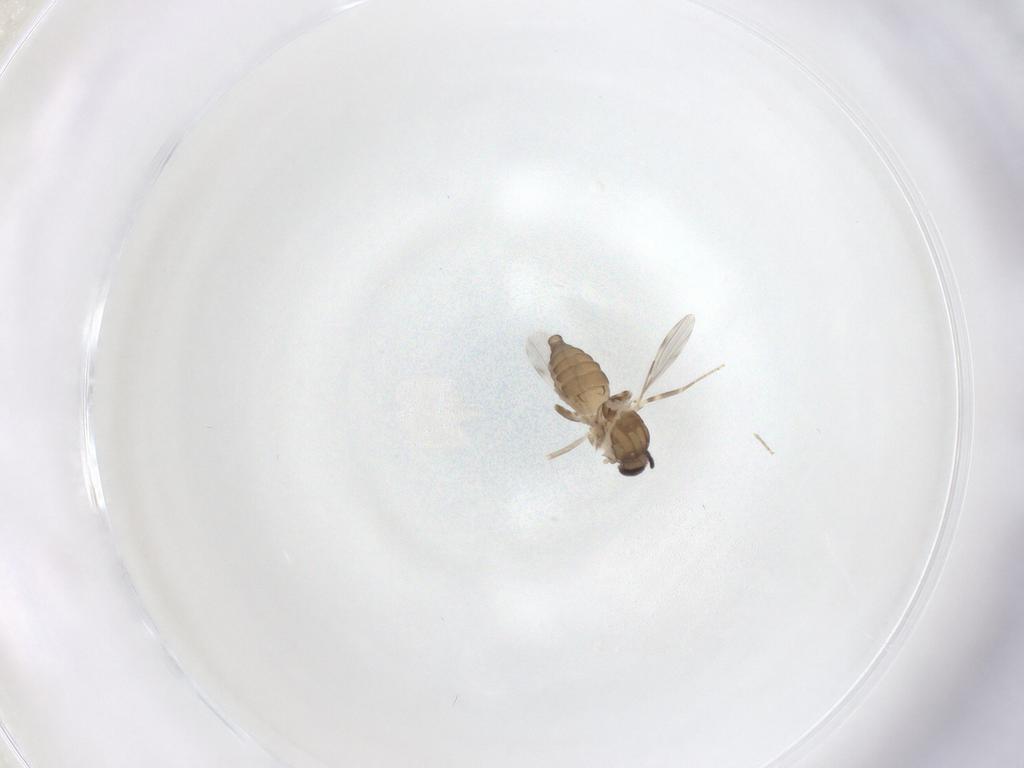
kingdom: Animalia
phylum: Arthropoda
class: Insecta
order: Diptera
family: Ceratopogonidae
